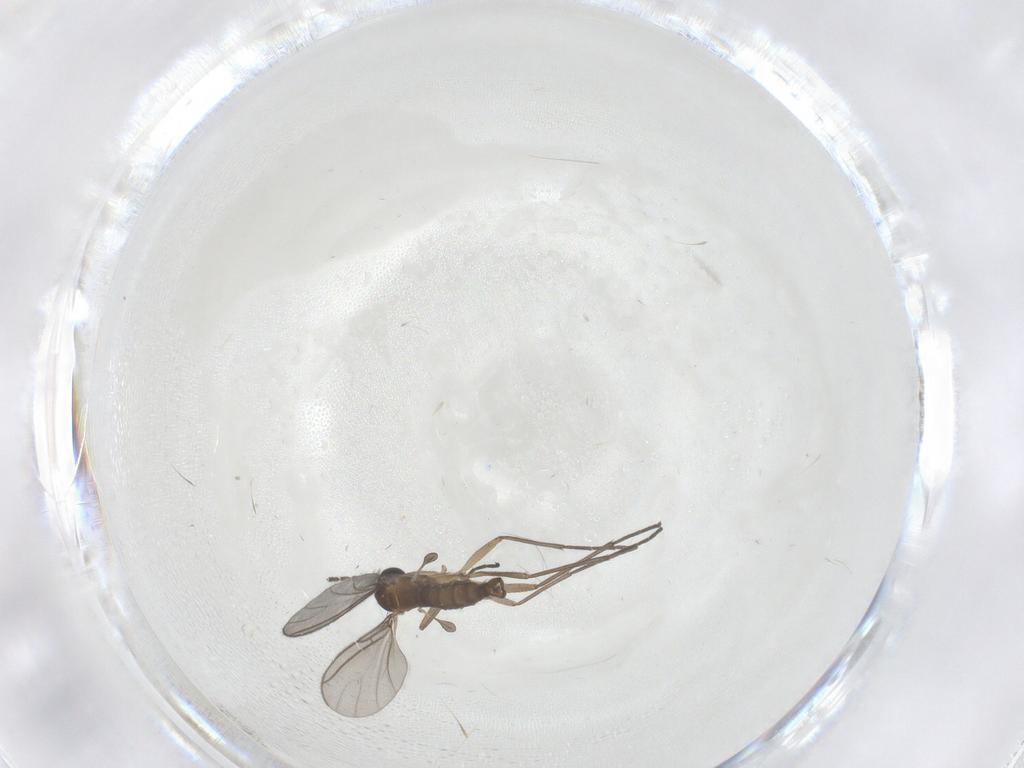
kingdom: Animalia
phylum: Arthropoda
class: Insecta
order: Diptera
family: Sciaridae
